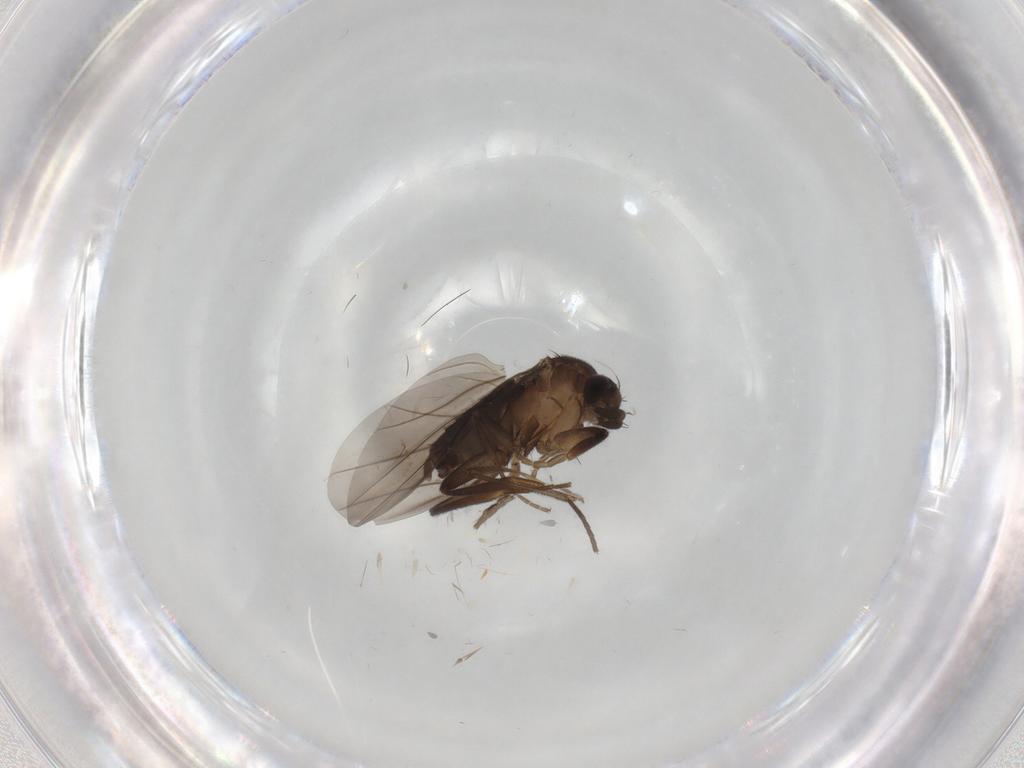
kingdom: Animalia
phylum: Arthropoda
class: Insecta
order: Diptera
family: Phoridae
